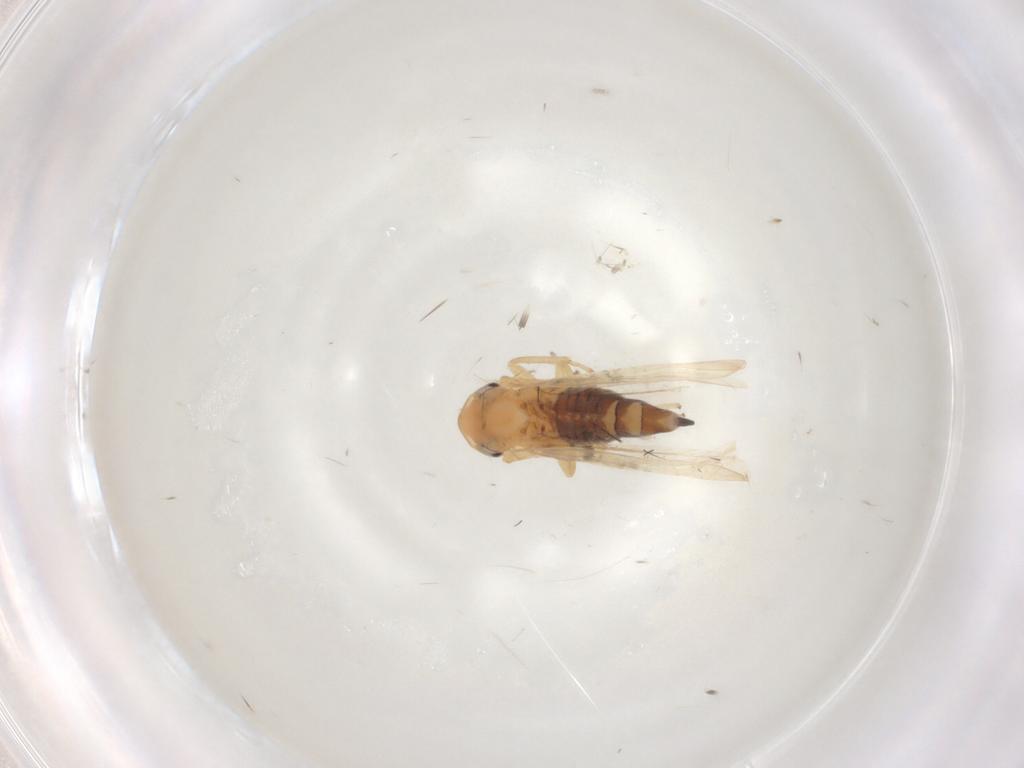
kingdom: Animalia
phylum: Arthropoda
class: Insecta
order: Hemiptera
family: Cicadellidae
